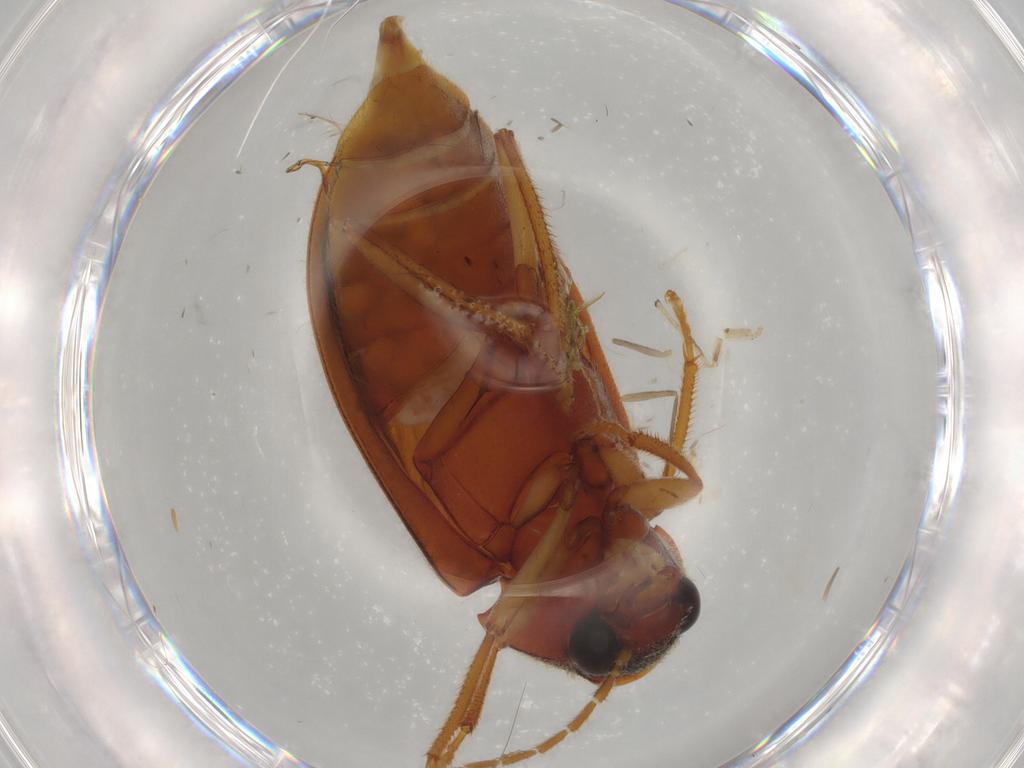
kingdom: Animalia
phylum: Arthropoda
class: Insecta
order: Coleoptera
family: Ptilodactylidae
